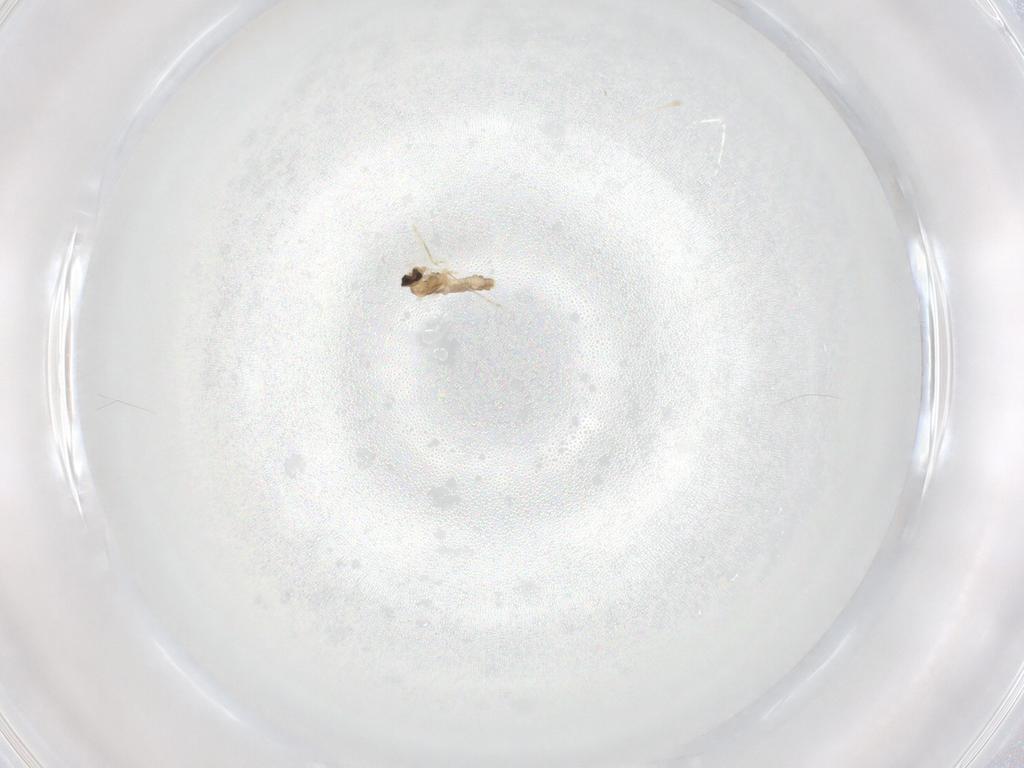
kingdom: Animalia
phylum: Arthropoda
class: Insecta
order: Diptera
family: Cecidomyiidae
